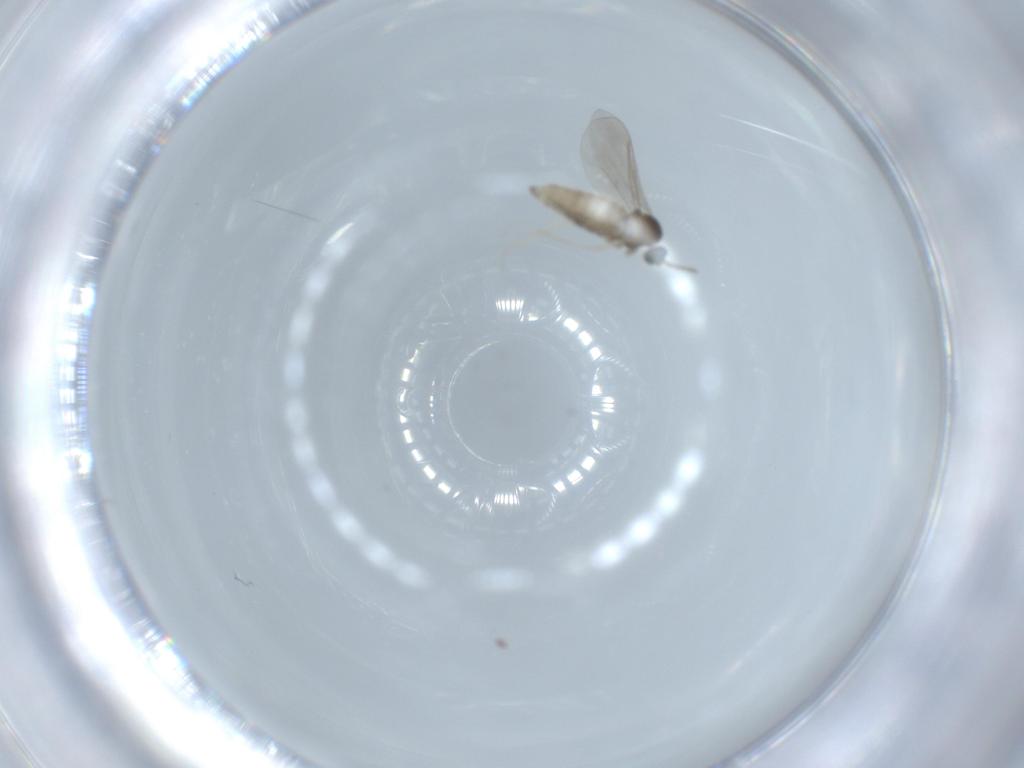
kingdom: Animalia
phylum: Arthropoda
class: Insecta
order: Diptera
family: Cecidomyiidae
